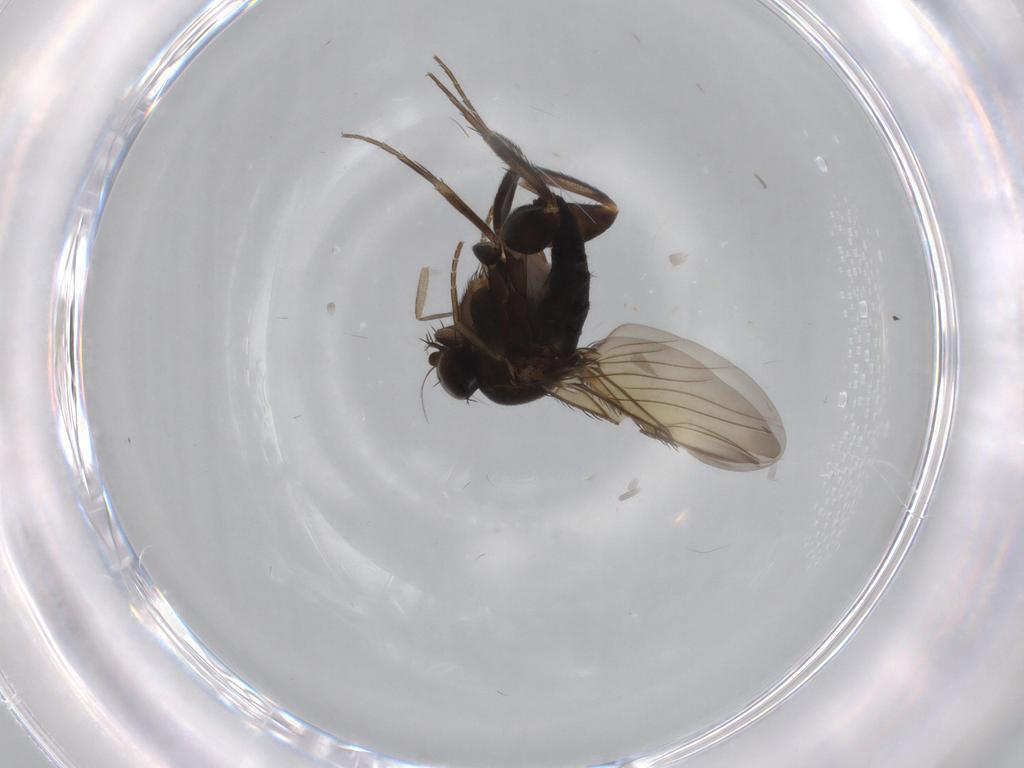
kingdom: Animalia
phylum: Arthropoda
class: Insecta
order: Diptera
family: Phoridae
